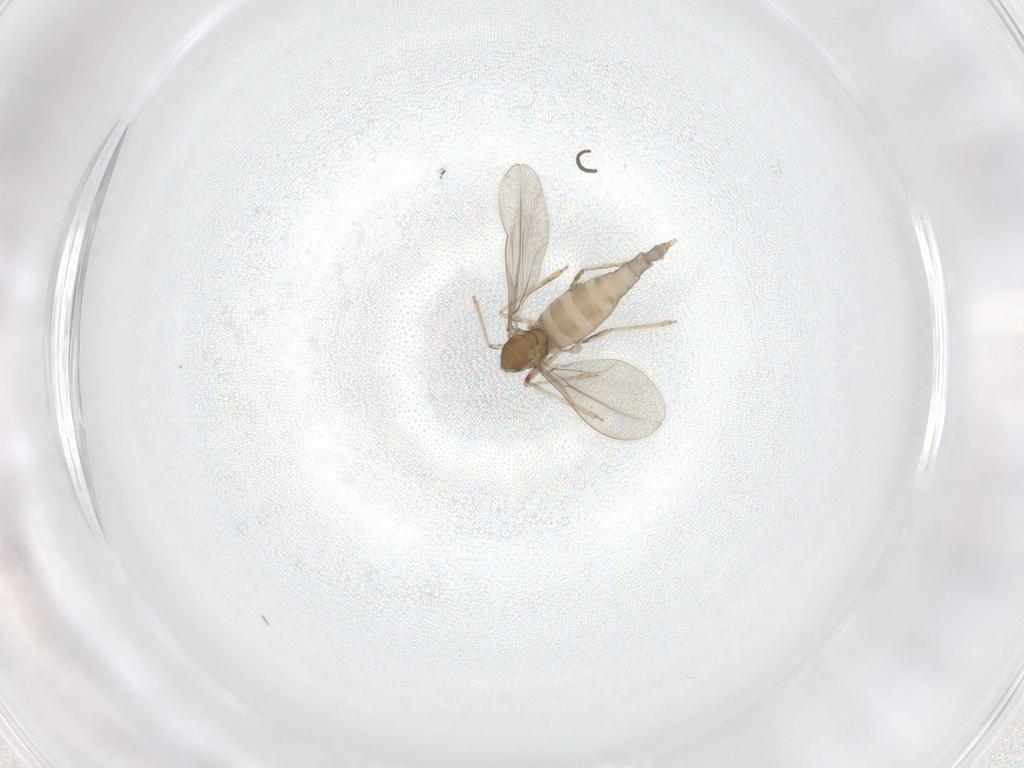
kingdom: Animalia
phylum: Arthropoda
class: Insecta
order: Diptera
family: Cecidomyiidae
